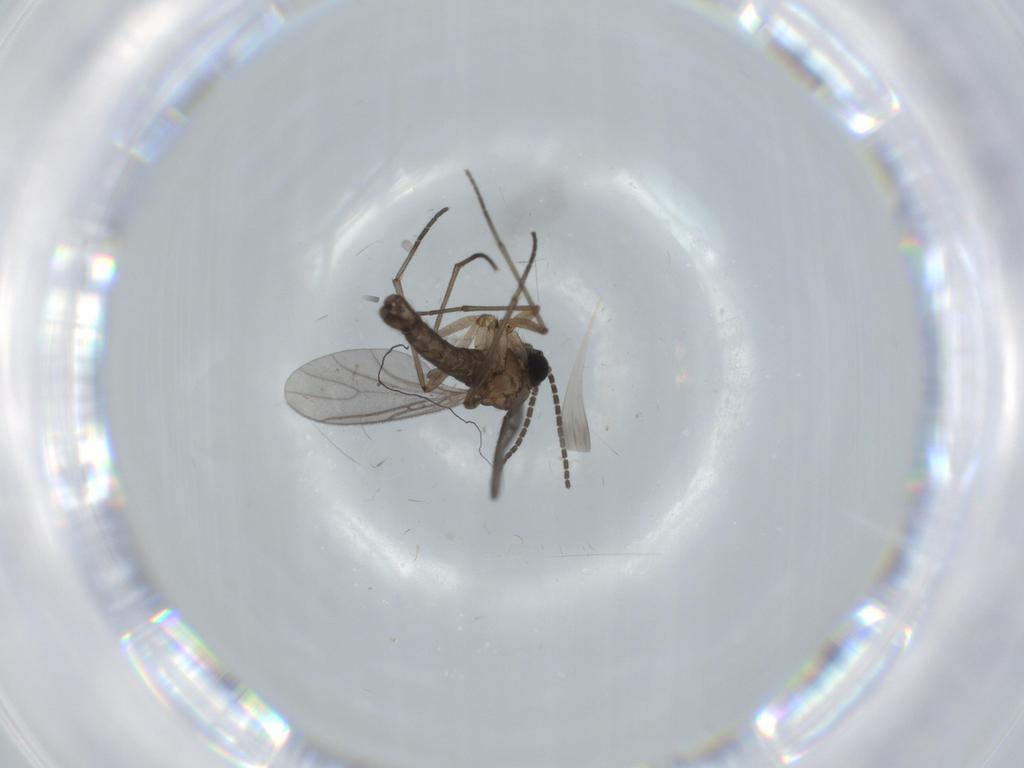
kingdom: Animalia
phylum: Arthropoda
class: Insecta
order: Diptera
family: Sciaridae
